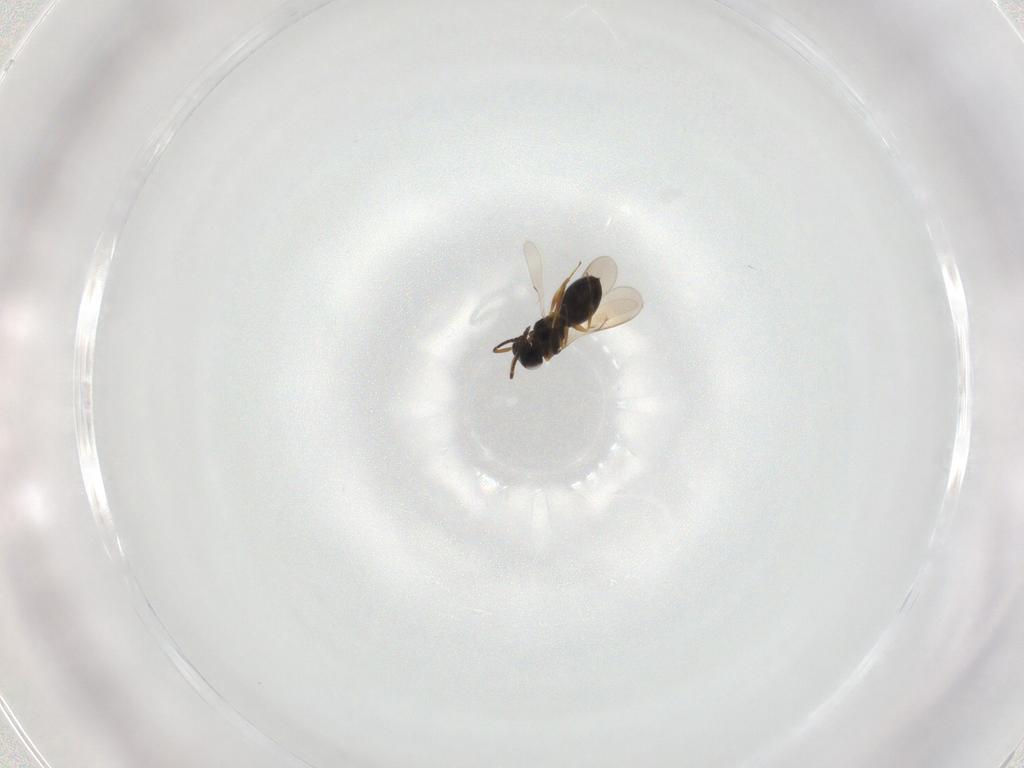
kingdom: Animalia
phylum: Arthropoda
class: Insecta
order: Hymenoptera
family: Scelionidae
